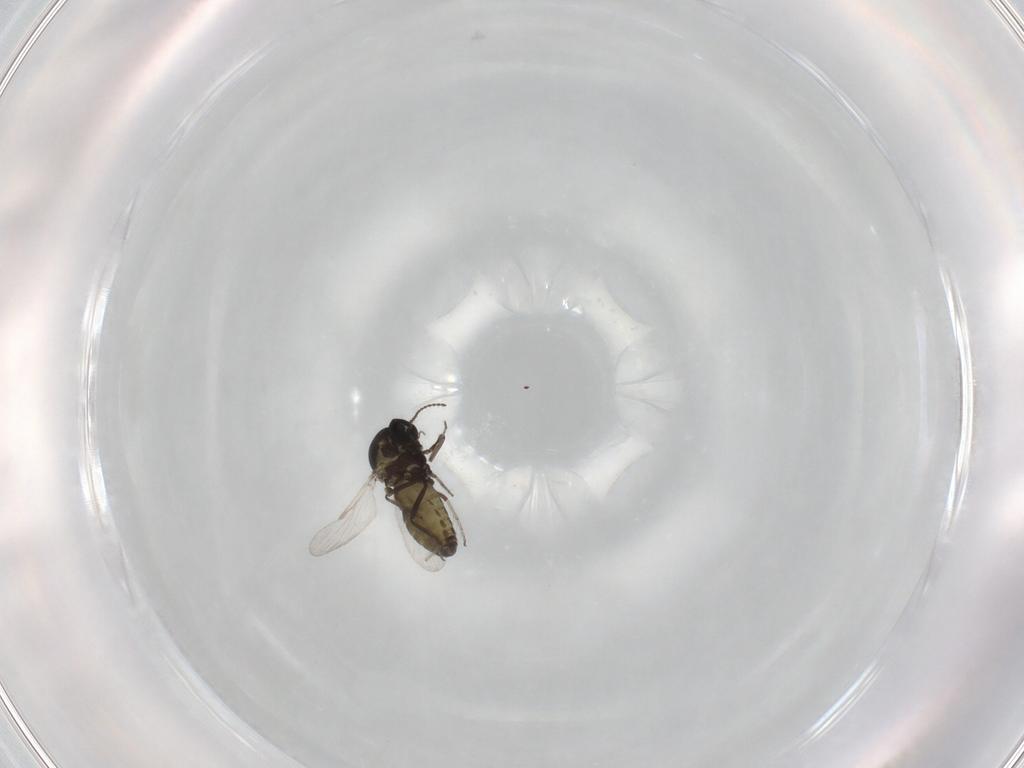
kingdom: Animalia
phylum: Arthropoda
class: Insecta
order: Diptera
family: Ceratopogonidae
